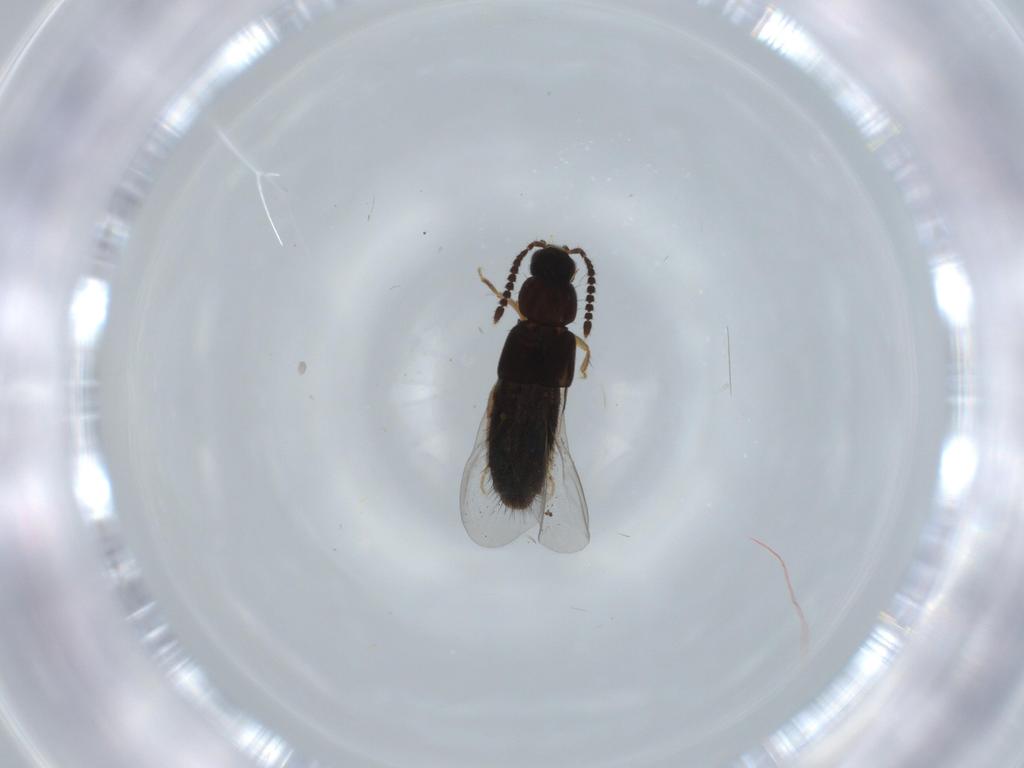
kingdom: Animalia
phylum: Arthropoda
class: Insecta
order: Coleoptera
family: Staphylinidae
